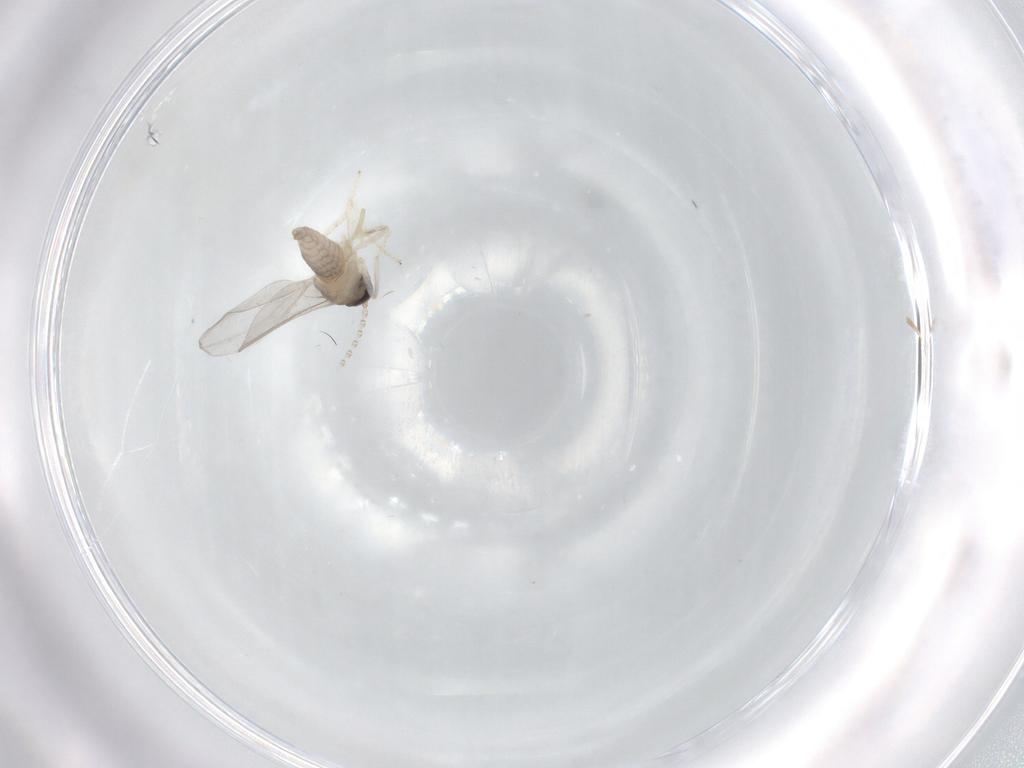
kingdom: Animalia
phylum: Arthropoda
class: Insecta
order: Diptera
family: Cecidomyiidae
